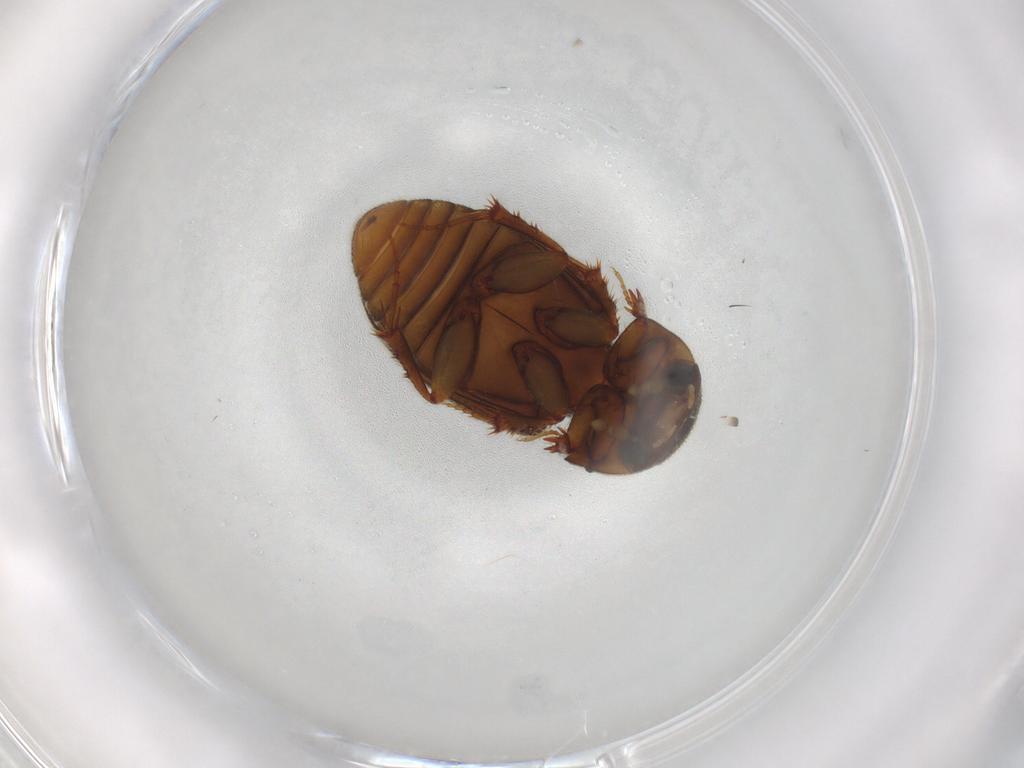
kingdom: Animalia
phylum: Arthropoda
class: Insecta
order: Coleoptera
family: Scarabaeidae
